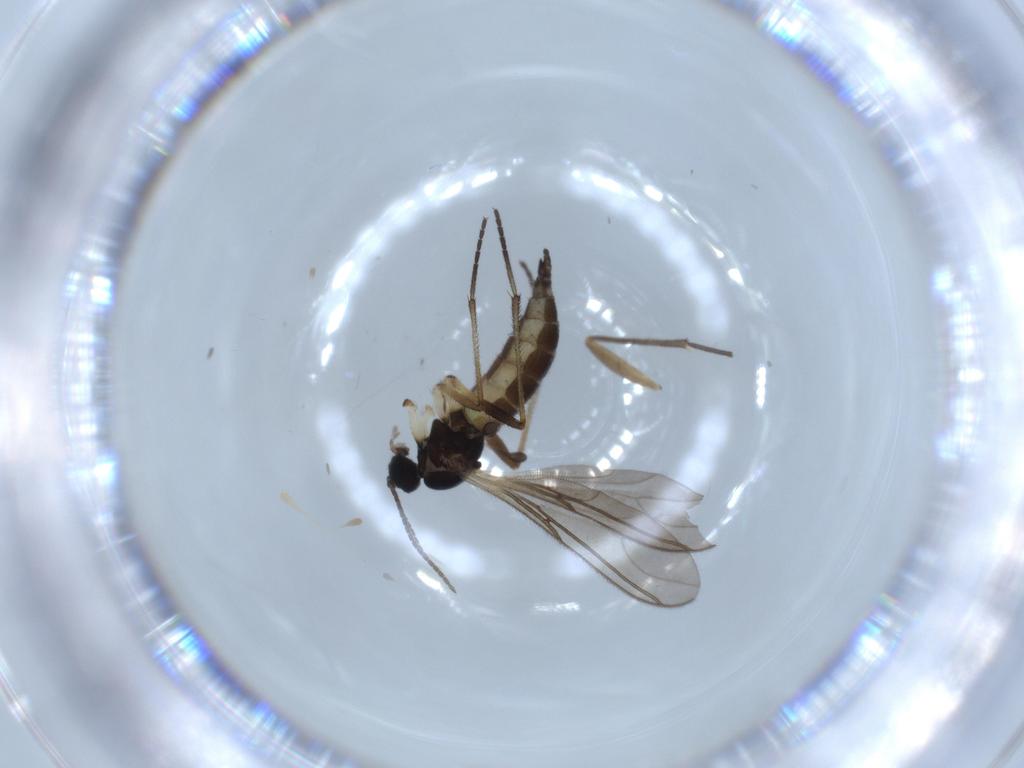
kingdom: Animalia
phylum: Arthropoda
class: Insecta
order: Diptera
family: Sciaridae
